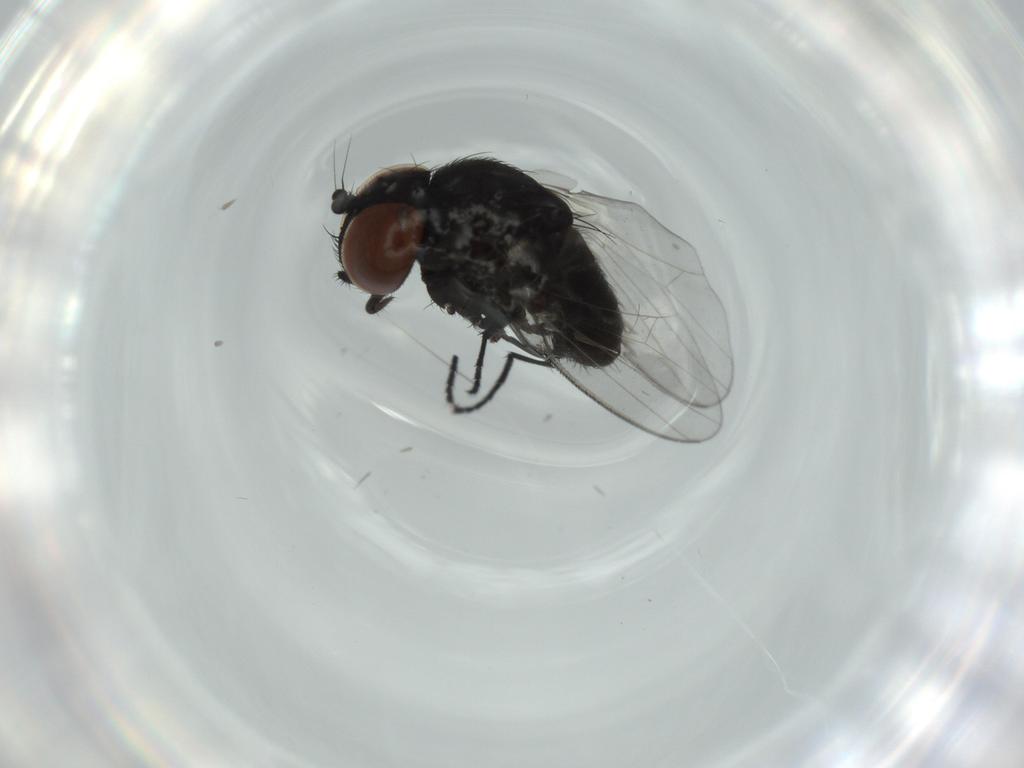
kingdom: Animalia
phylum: Arthropoda
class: Insecta
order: Diptera
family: Milichiidae
